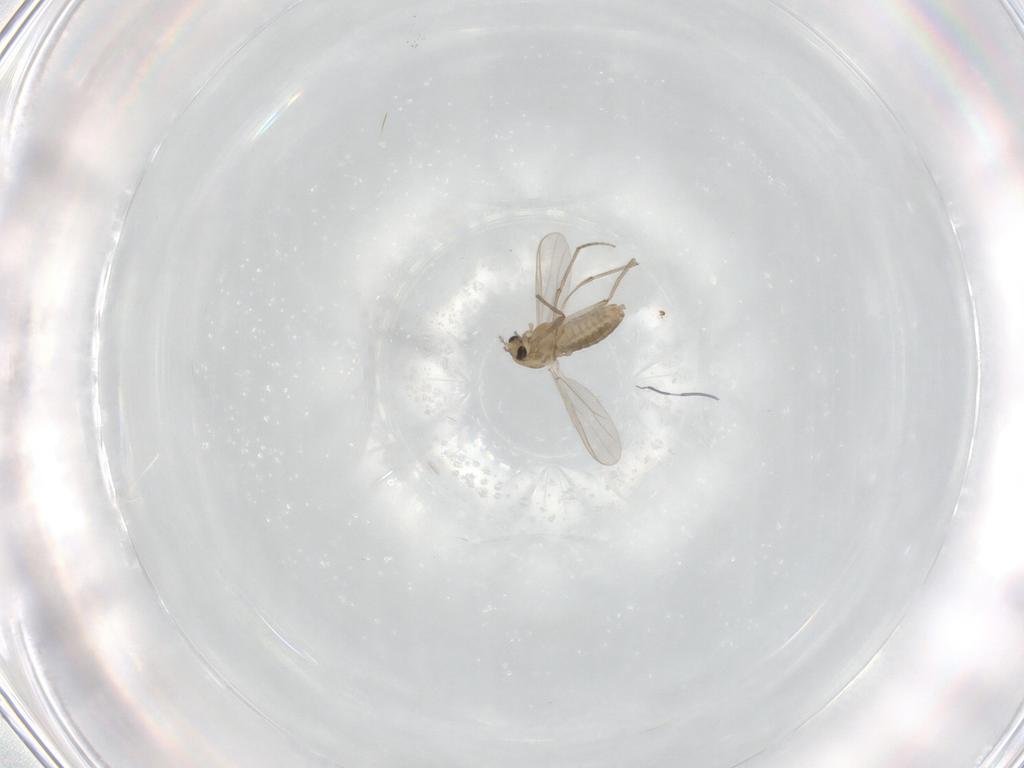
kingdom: Animalia
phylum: Arthropoda
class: Insecta
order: Diptera
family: Chironomidae
